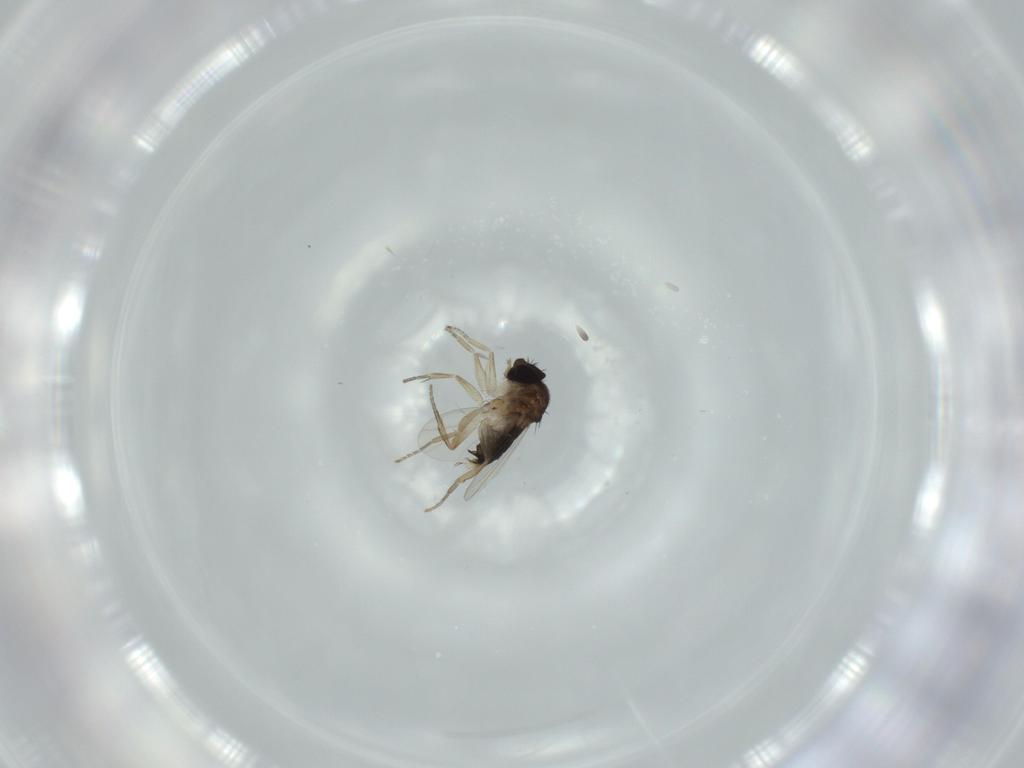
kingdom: Animalia
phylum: Arthropoda
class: Insecta
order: Diptera
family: Phoridae
